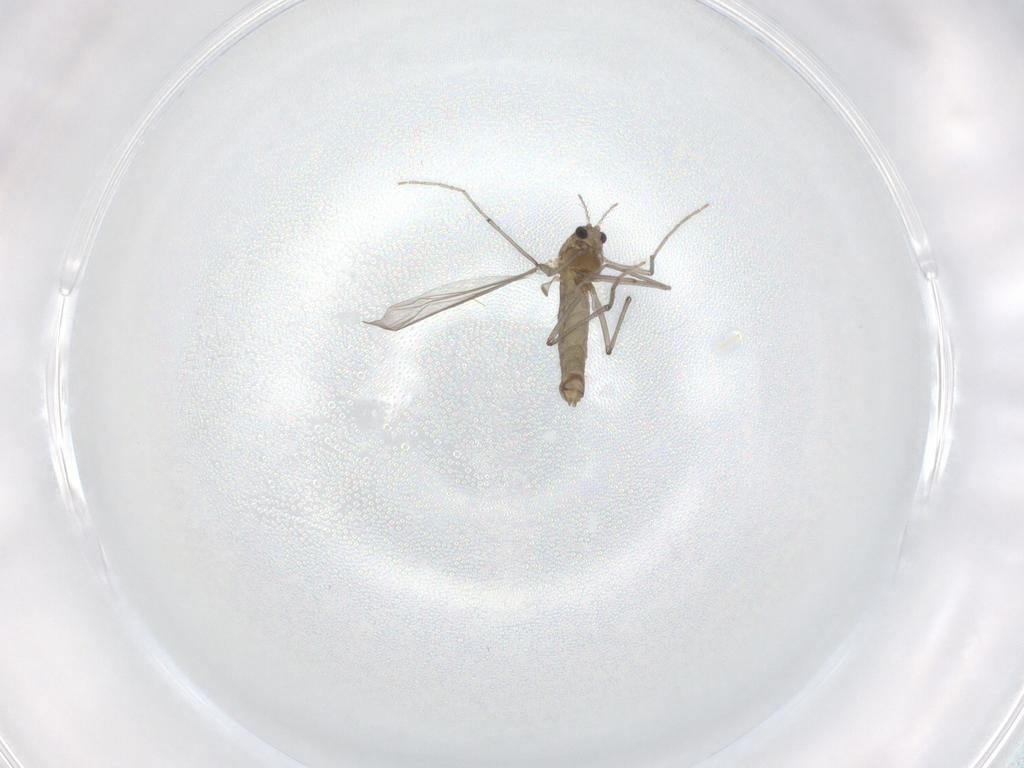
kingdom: Animalia
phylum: Arthropoda
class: Insecta
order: Diptera
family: Chironomidae
